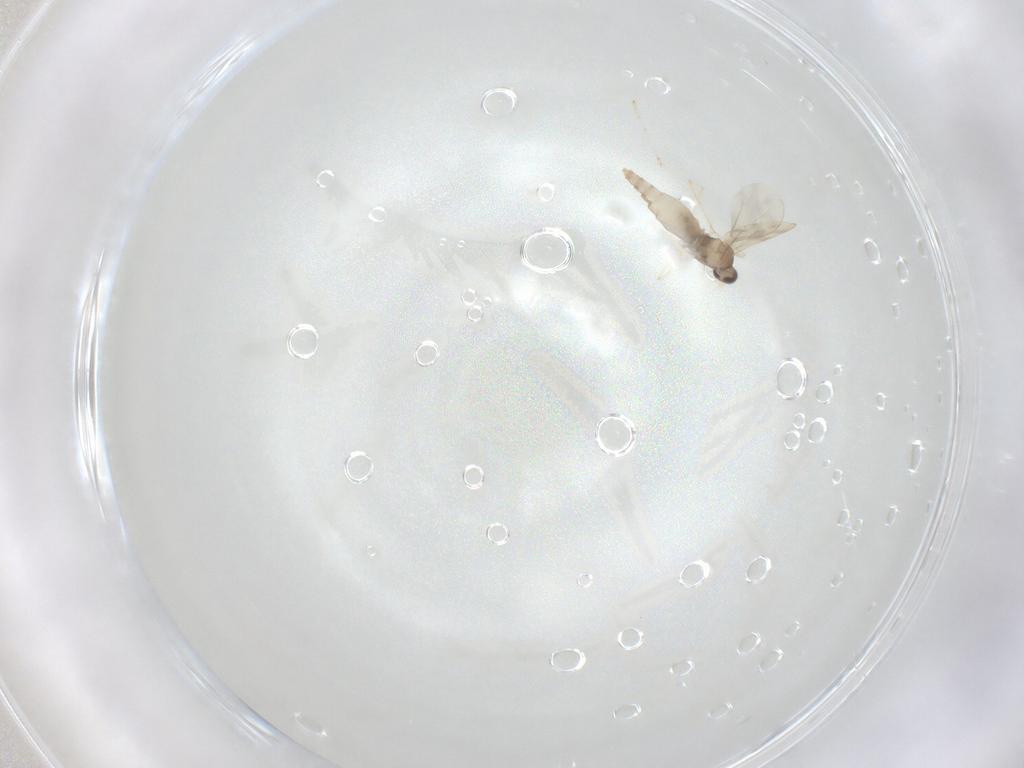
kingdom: Animalia
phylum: Arthropoda
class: Insecta
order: Diptera
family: Cecidomyiidae
